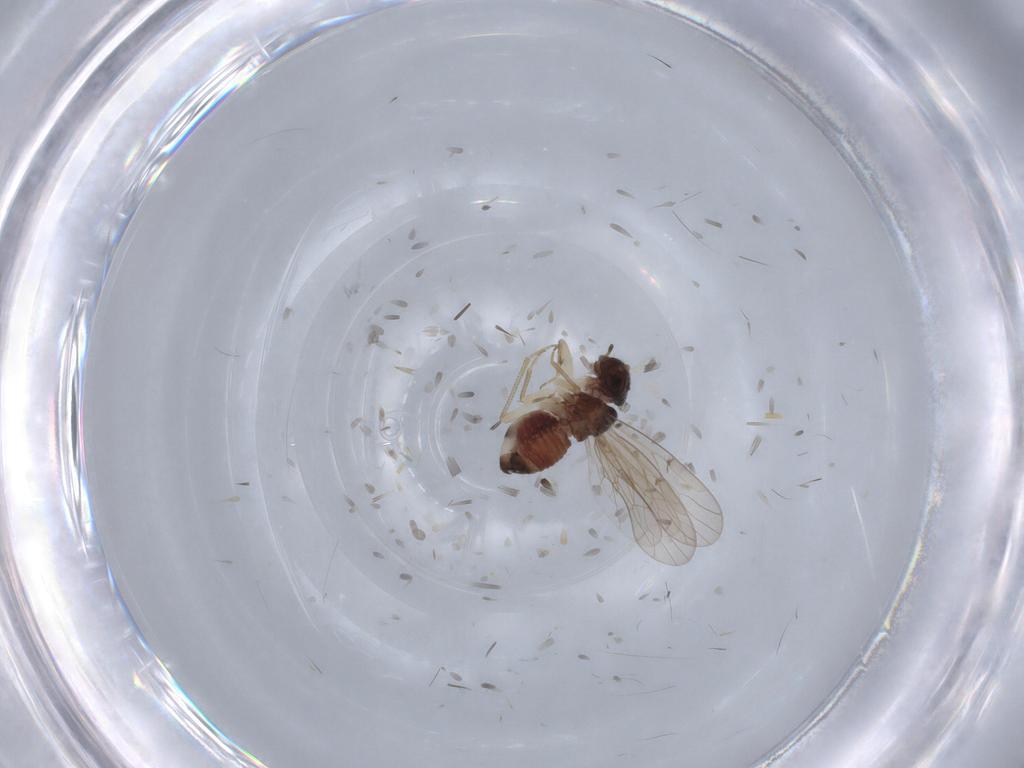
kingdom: Animalia
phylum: Arthropoda
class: Insecta
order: Psocodea
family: Ectopsocidae
